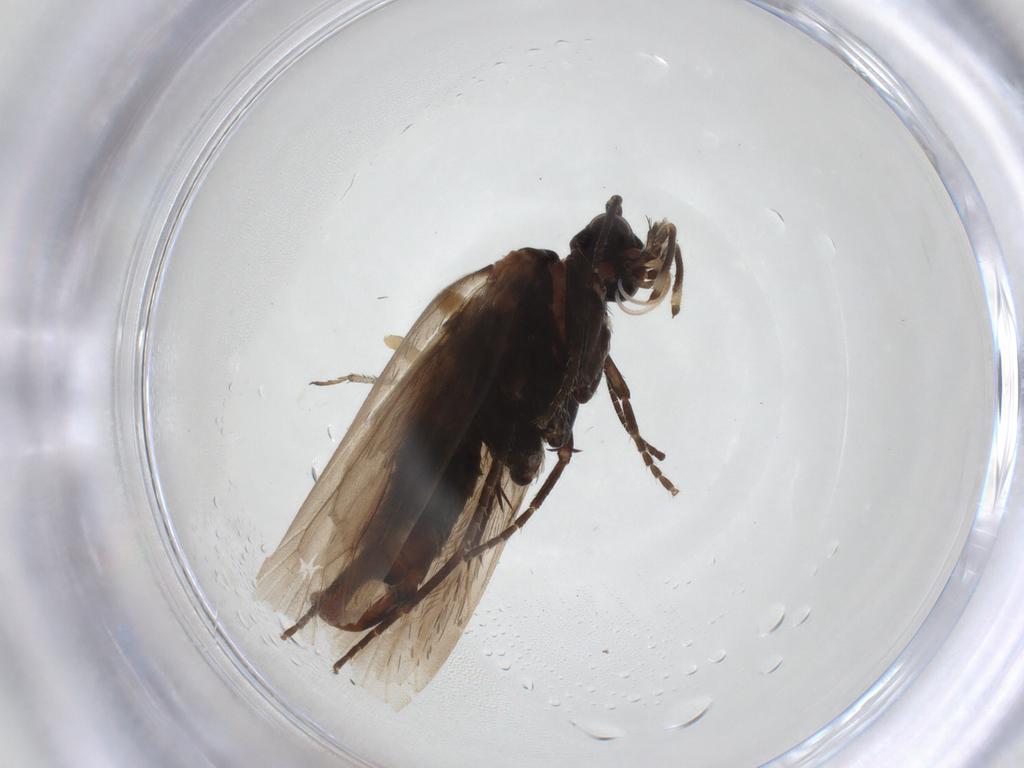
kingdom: Animalia
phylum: Arthropoda
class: Insecta
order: Lepidoptera
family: Prodoxidae
